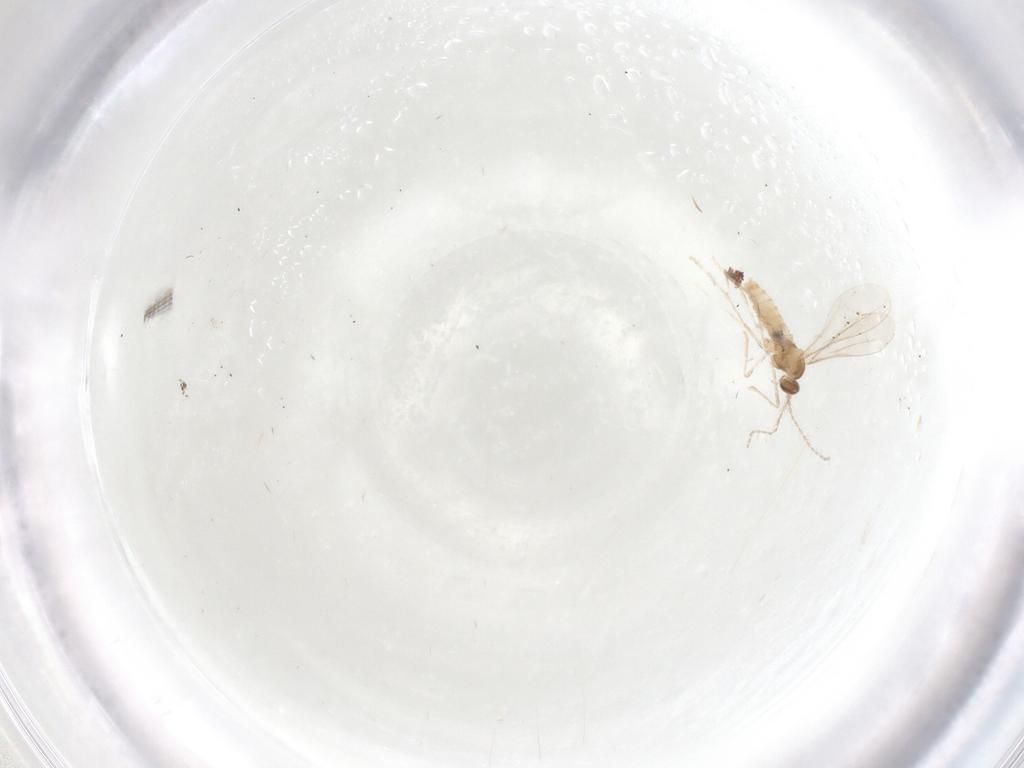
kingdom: Animalia
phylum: Arthropoda
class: Insecta
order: Diptera
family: Cecidomyiidae
